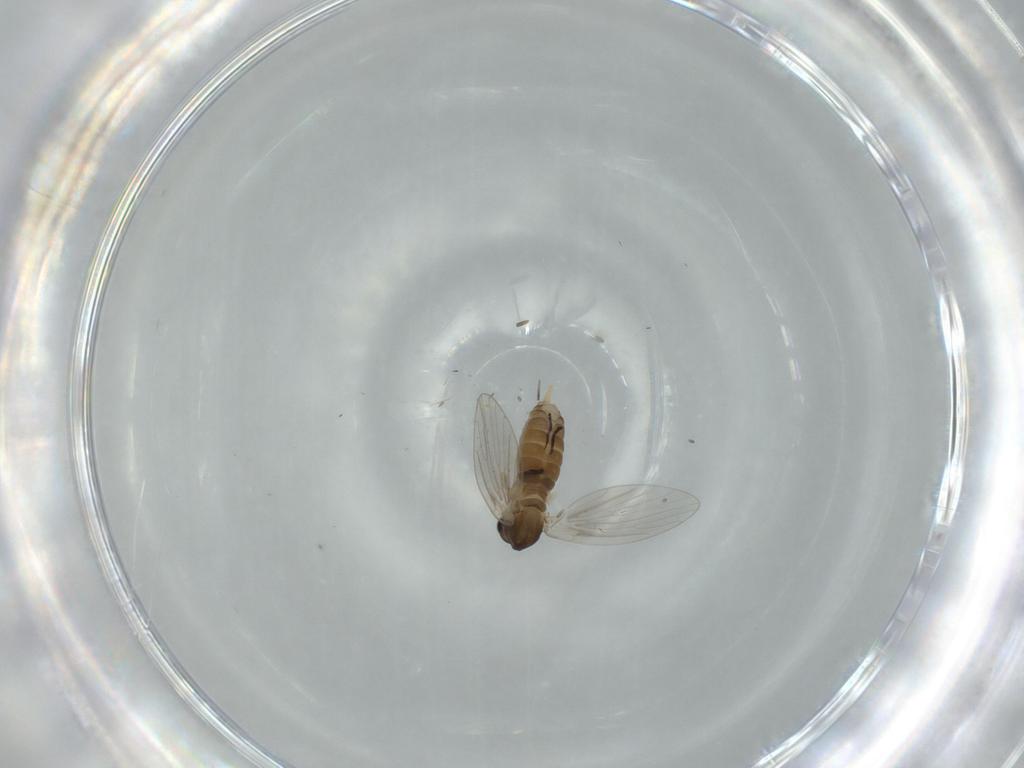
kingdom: Animalia
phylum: Arthropoda
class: Insecta
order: Diptera
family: Psychodidae
